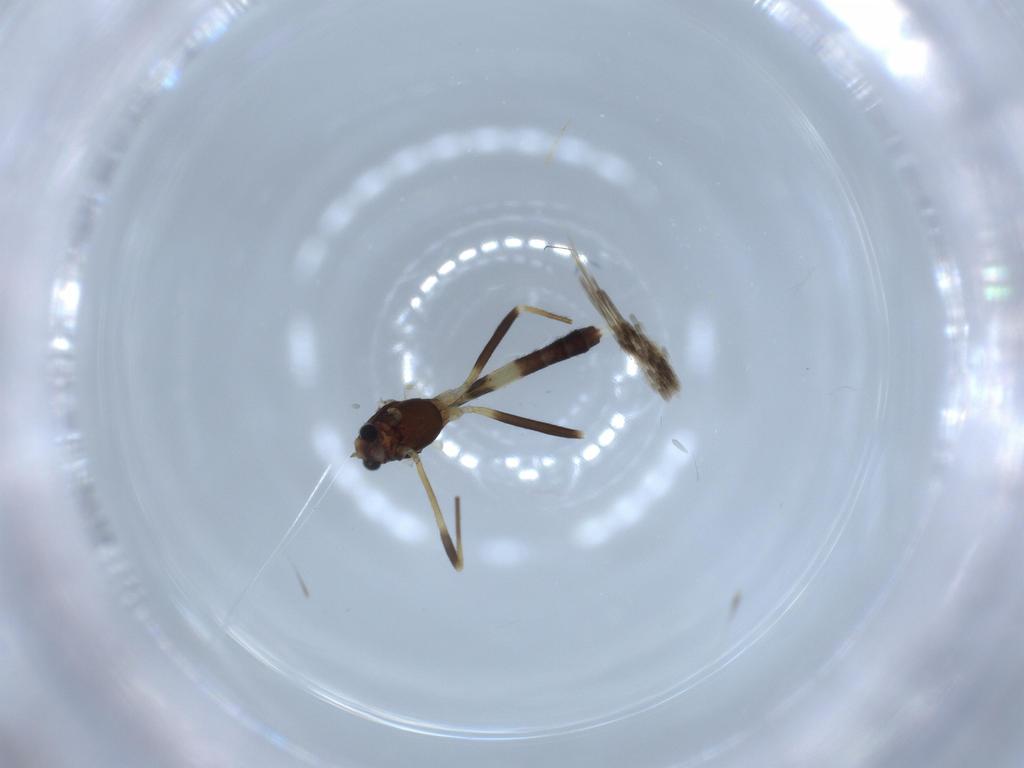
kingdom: Animalia
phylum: Arthropoda
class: Insecta
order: Diptera
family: Chironomidae
